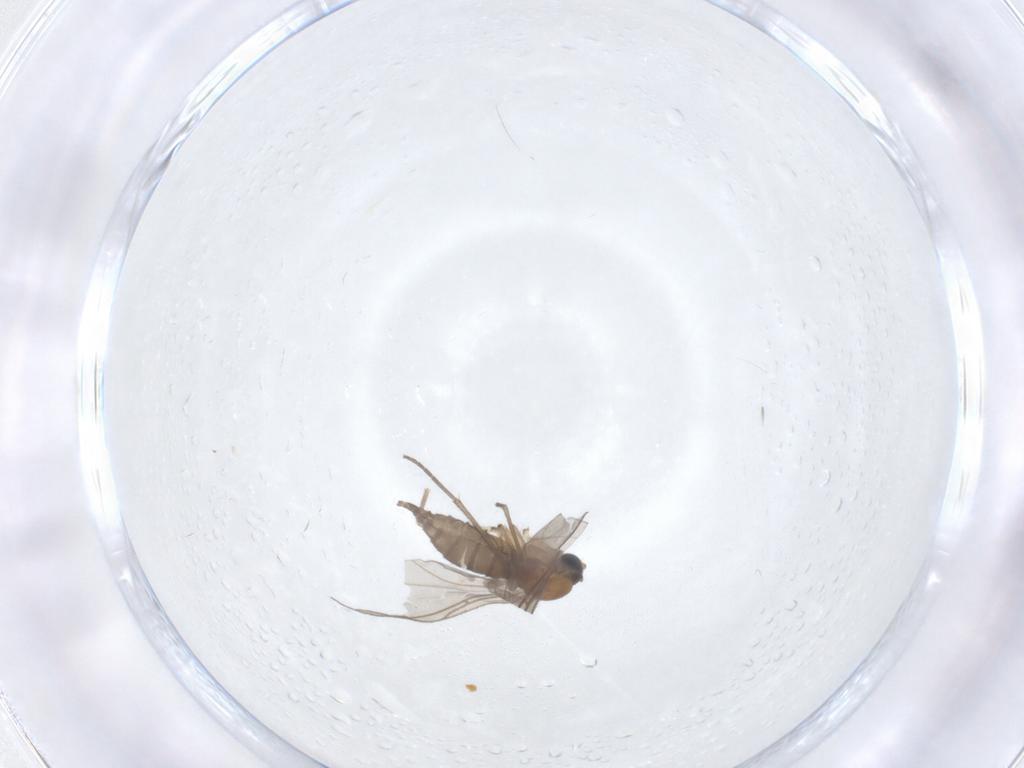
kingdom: Animalia
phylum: Arthropoda
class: Insecta
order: Diptera
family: Sciaridae
